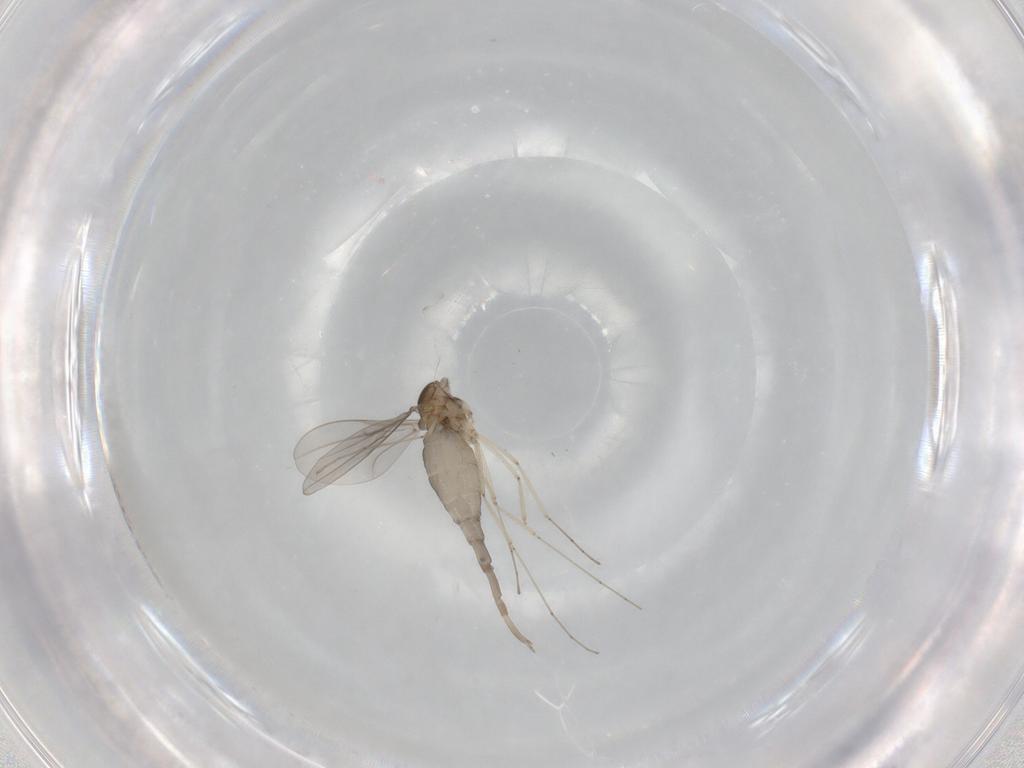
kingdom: Animalia
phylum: Arthropoda
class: Insecta
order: Diptera
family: Cecidomyiidae
